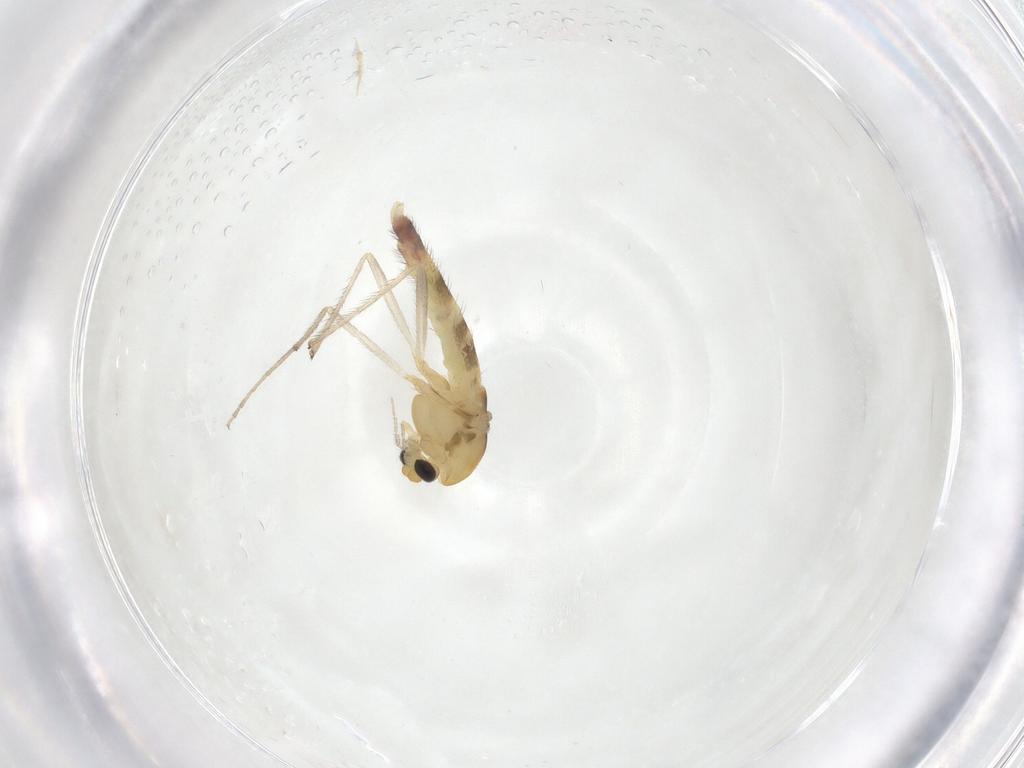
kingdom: Animalia
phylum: Arthropoda
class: Insecta
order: Diptera
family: Chironomidae
